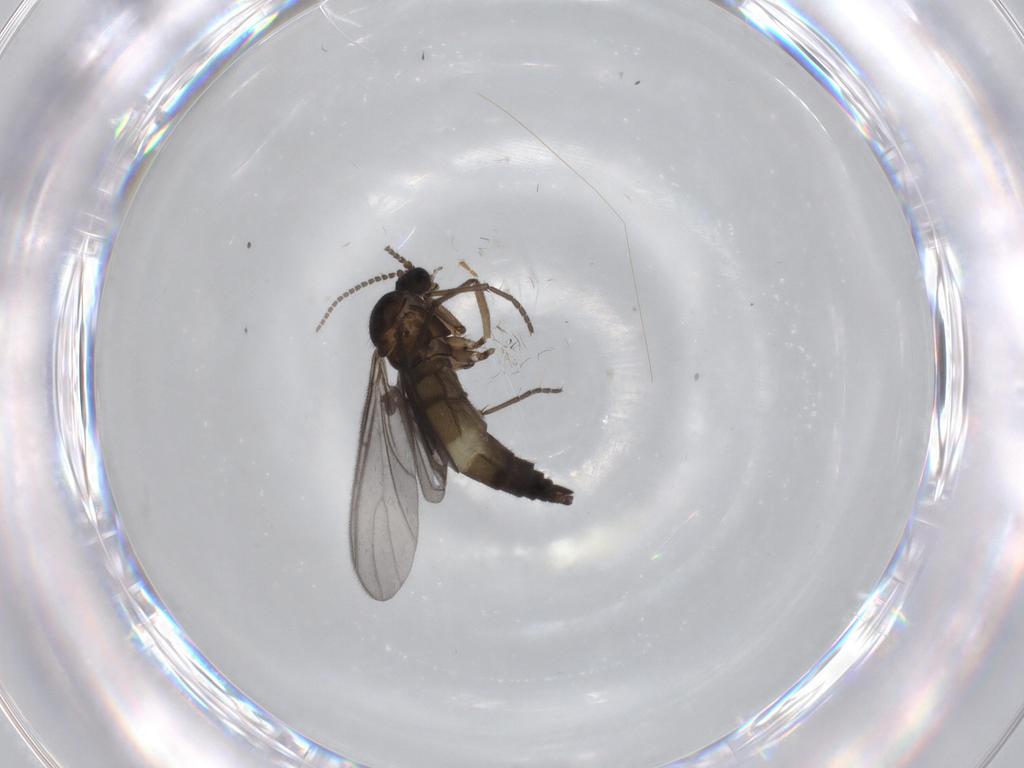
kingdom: Animalia
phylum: Arthropoda
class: Insecta
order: Diptera
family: Sciaridae
